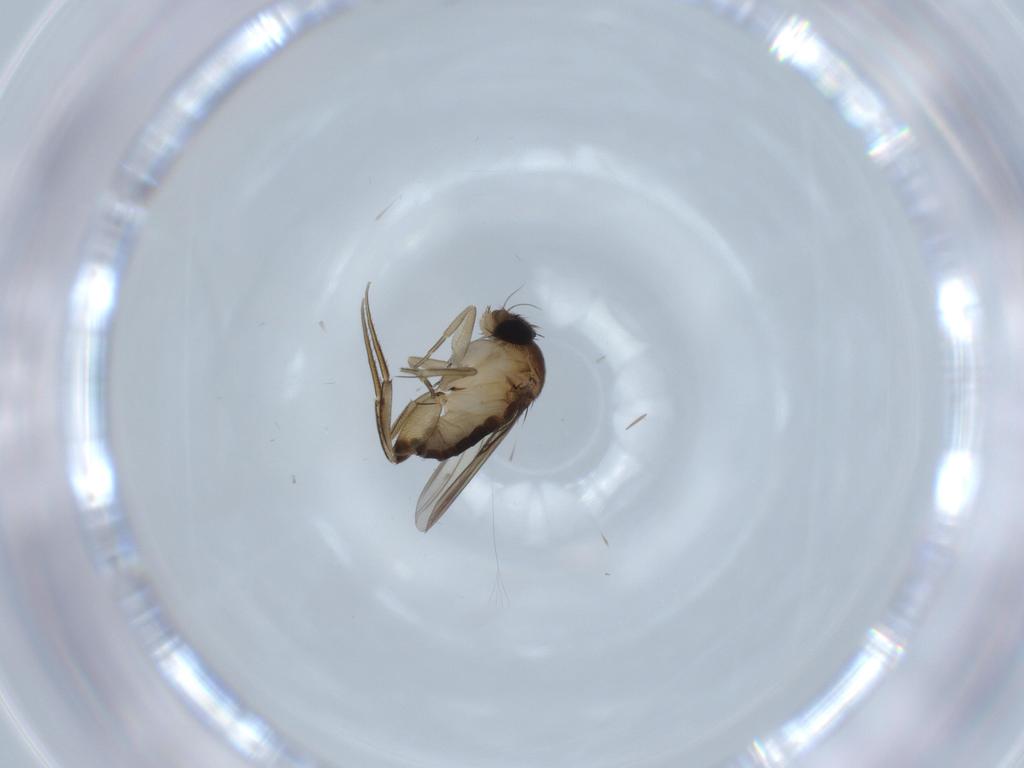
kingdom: Animalia
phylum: Arthropoda
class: Insecta
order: Diptera
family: Phoridae
